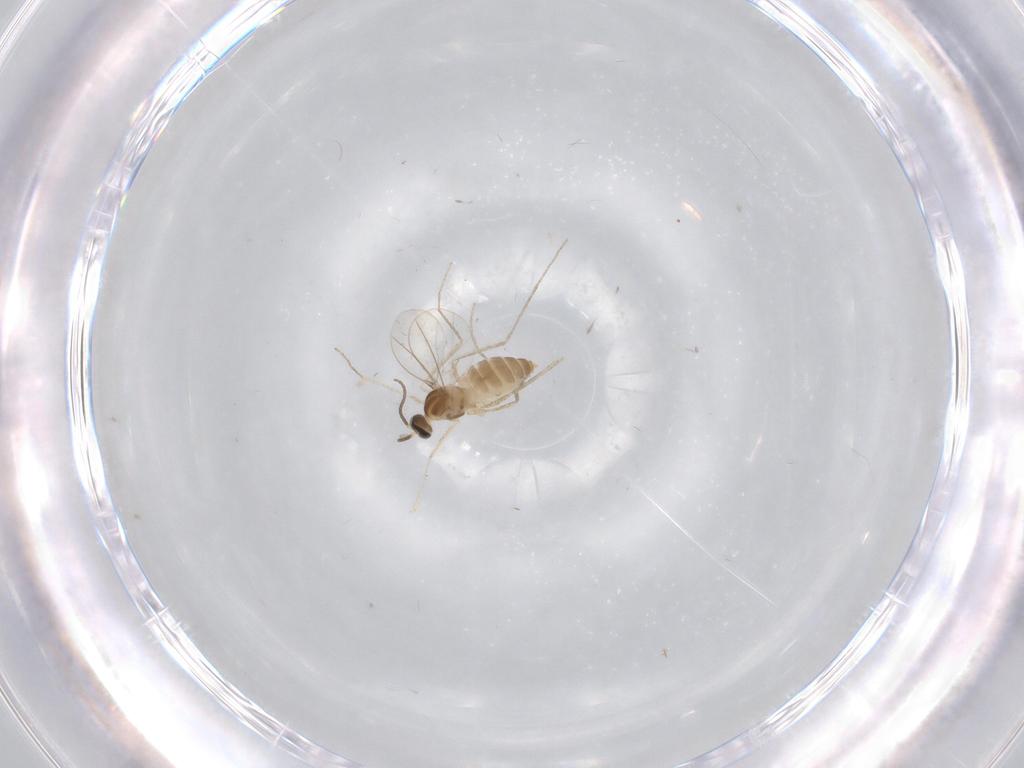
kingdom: Animalia
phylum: Arthropoda
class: Insecta
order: Diptera
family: Cecidomyiidae
